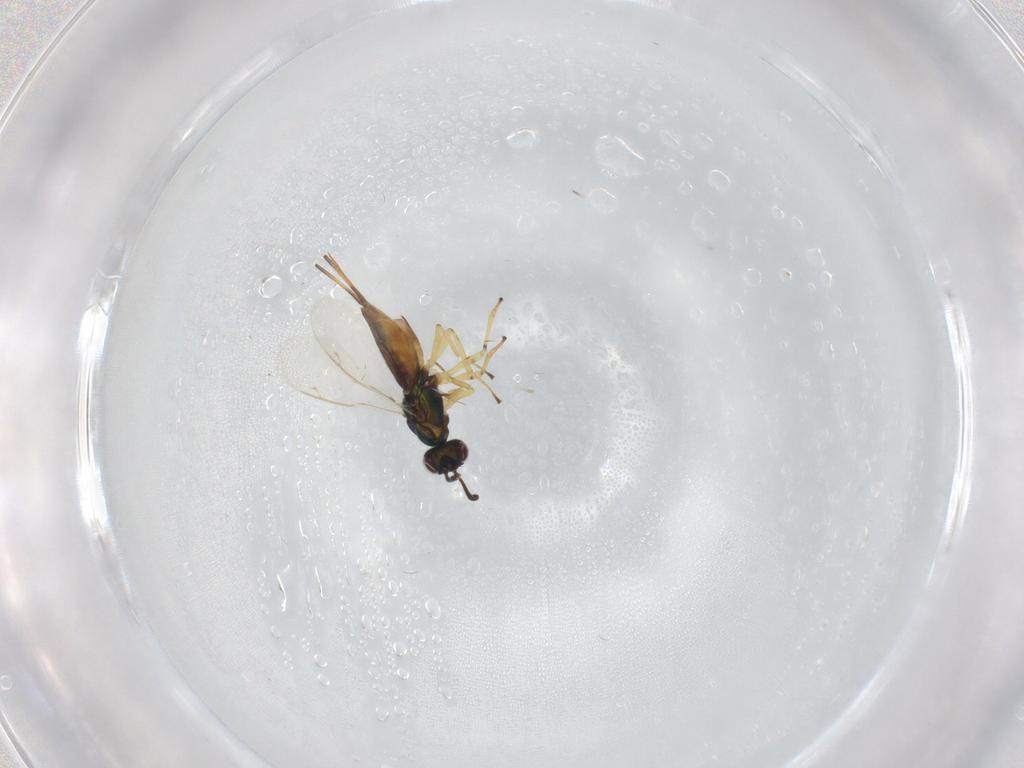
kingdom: Animalia
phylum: Arthropoda
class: Insecta
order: Hymenoptera
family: Eupelmidae
